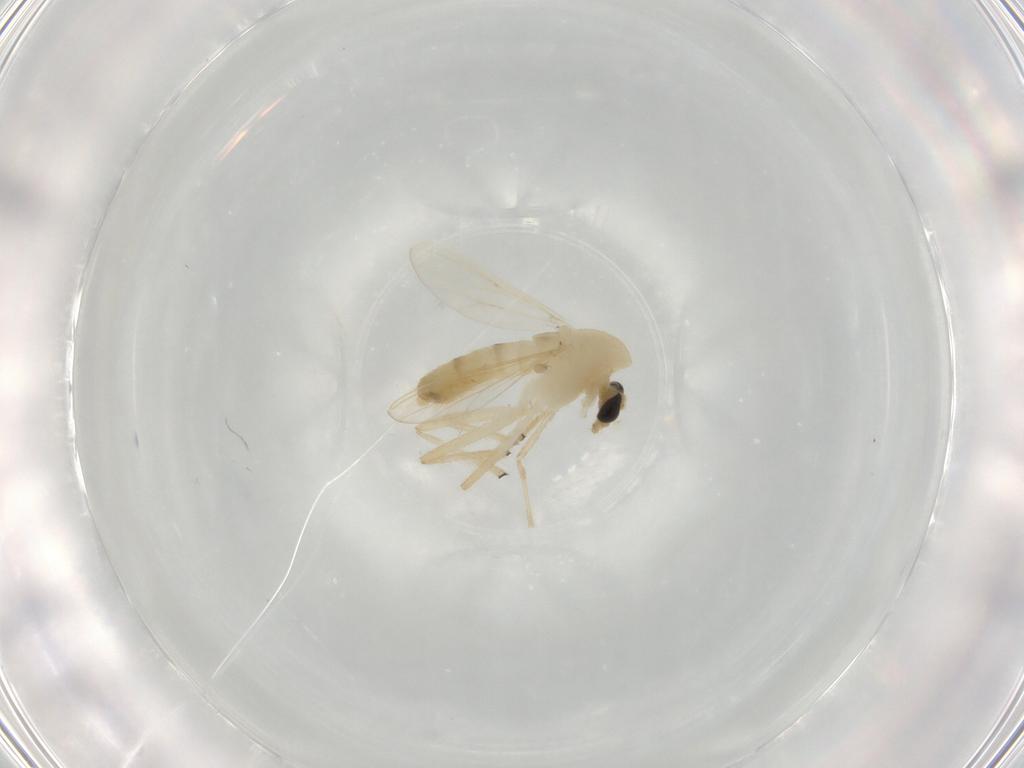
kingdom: Animalia
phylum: Arthropoda
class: Insecta
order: Diptera
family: Chironomidae
